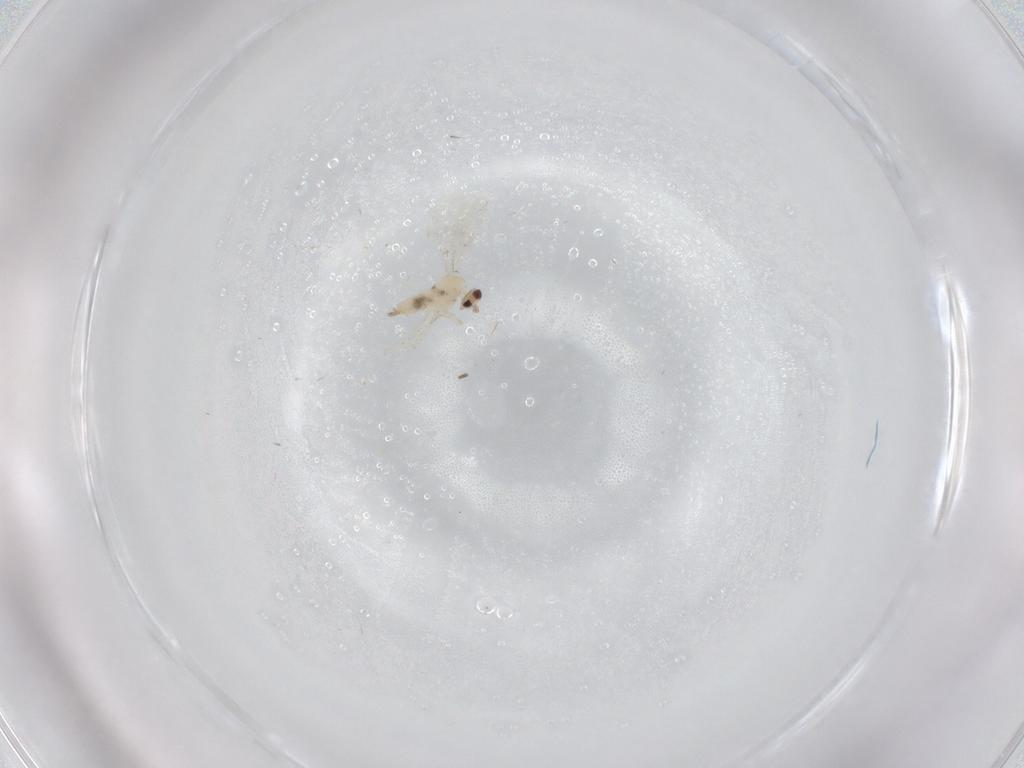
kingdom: Animalia
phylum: Arthropoda
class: Insecta
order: Diptera
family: Cecidomyiidae
